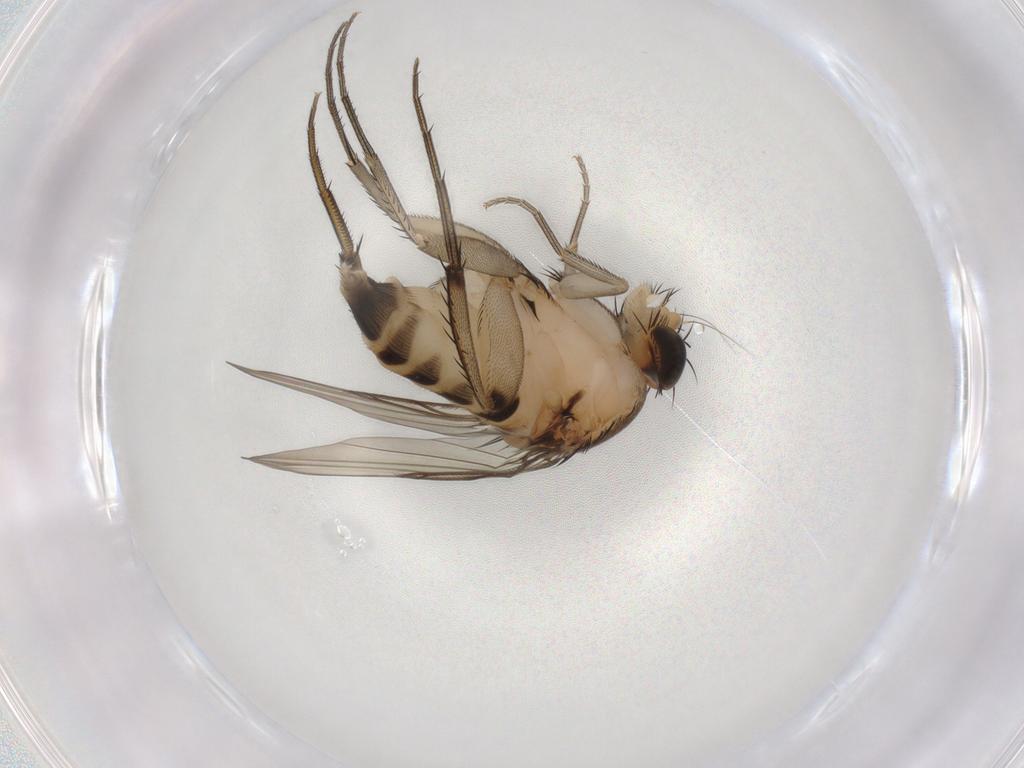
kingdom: Animalia
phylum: Arthropoda
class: Insecta
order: Diptera
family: Phoridae
